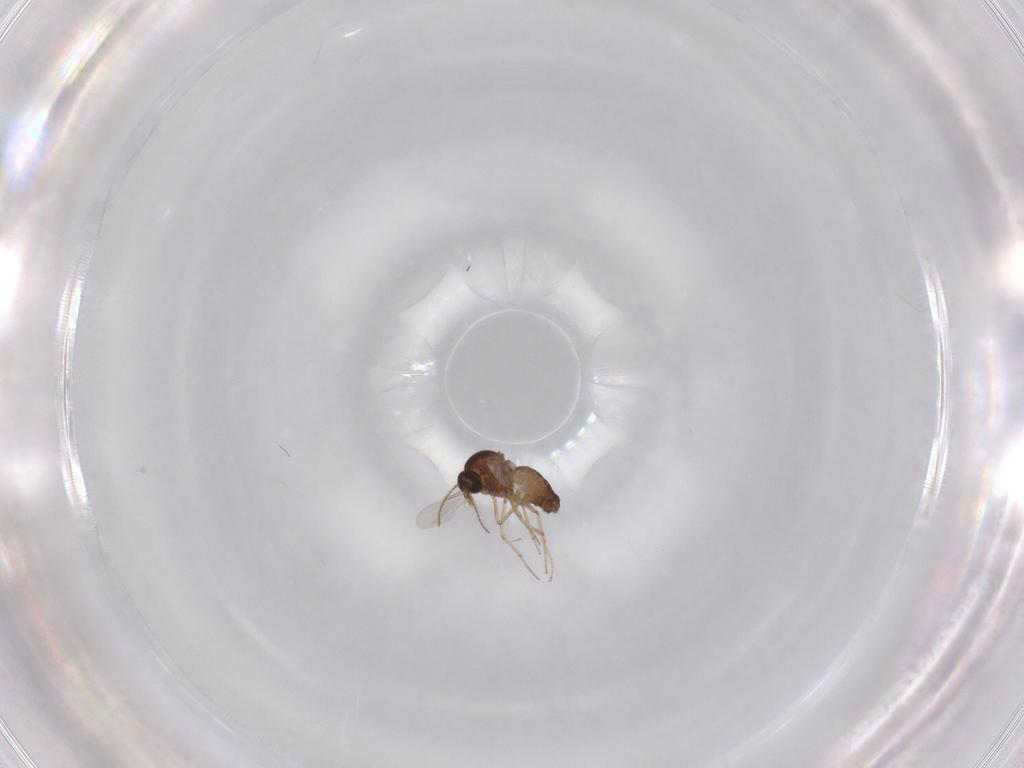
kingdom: Animalia
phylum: Arthropoda
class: Insecta
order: Diptera
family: Ceratopogonidae
